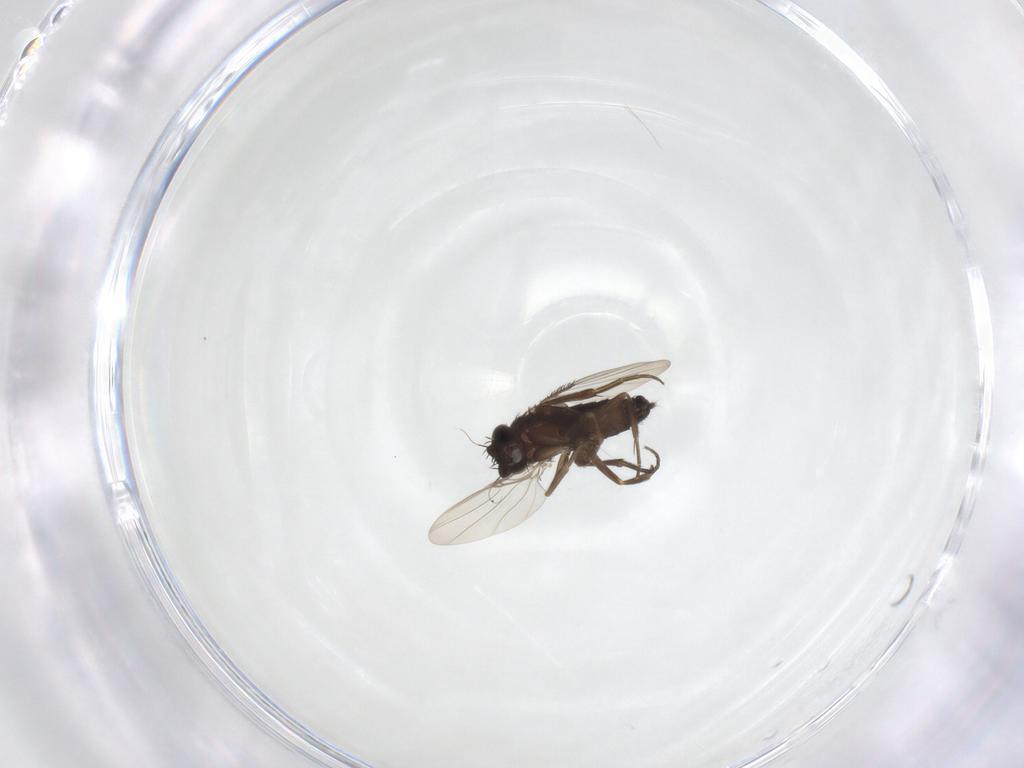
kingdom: Animalia
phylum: Arthropoda
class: Insecta
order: Diptera
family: Phoridae
